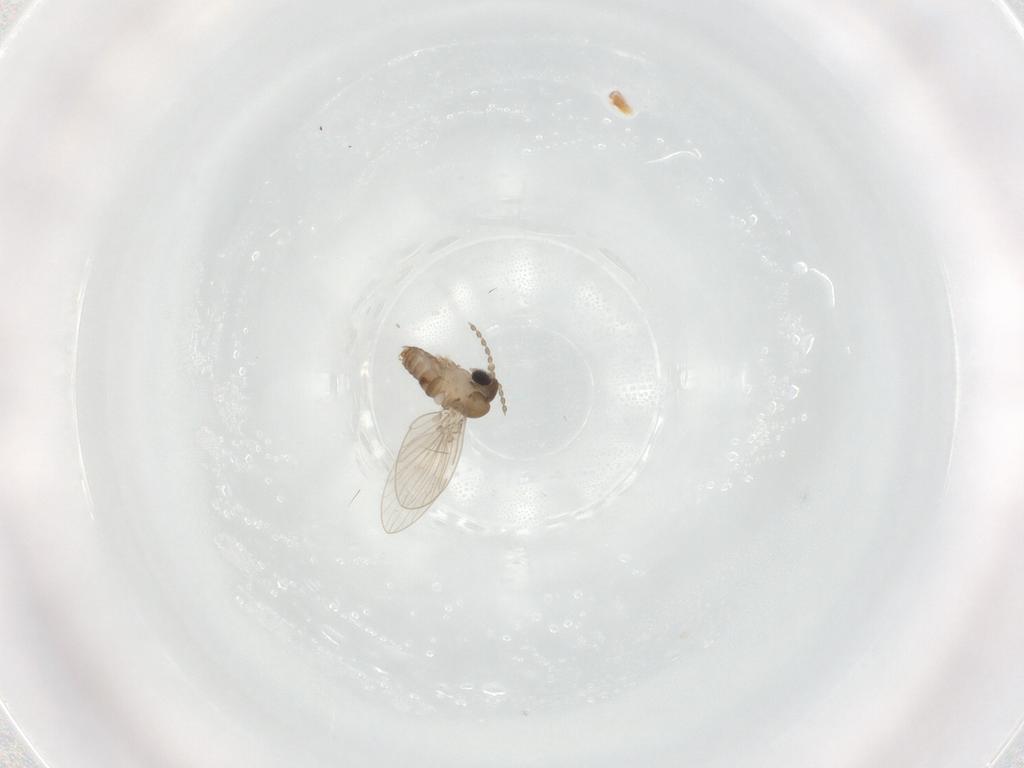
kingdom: Animalia
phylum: Arthropoda
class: Insecta
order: Diptera
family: Psychodidae
